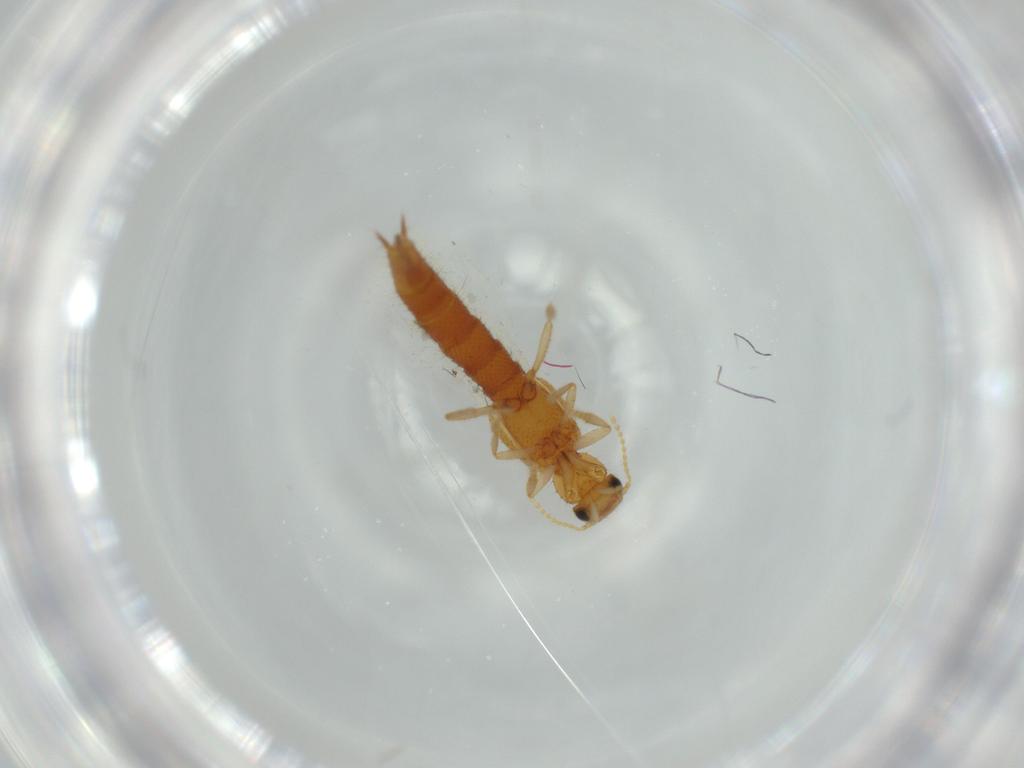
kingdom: Animalia
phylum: Arthropoda
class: Insecta
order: Coleoptera
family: Staphylinidae
